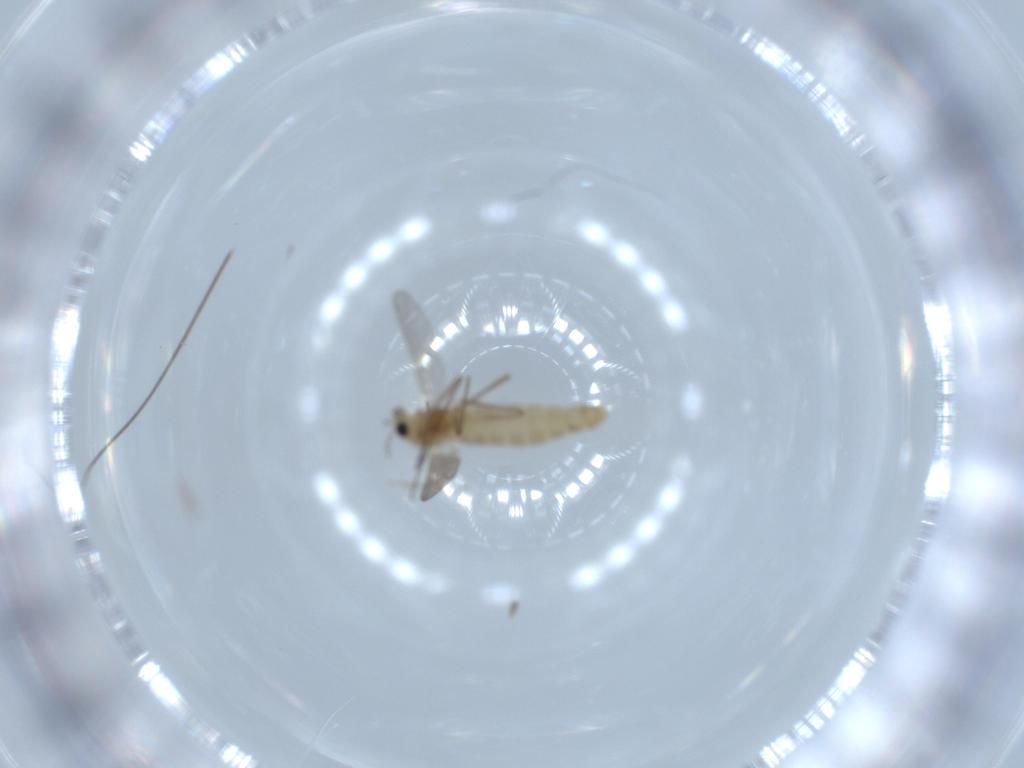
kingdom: Animalia
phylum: Arthropoda
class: Insecta
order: Diptera
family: Chironomidae
